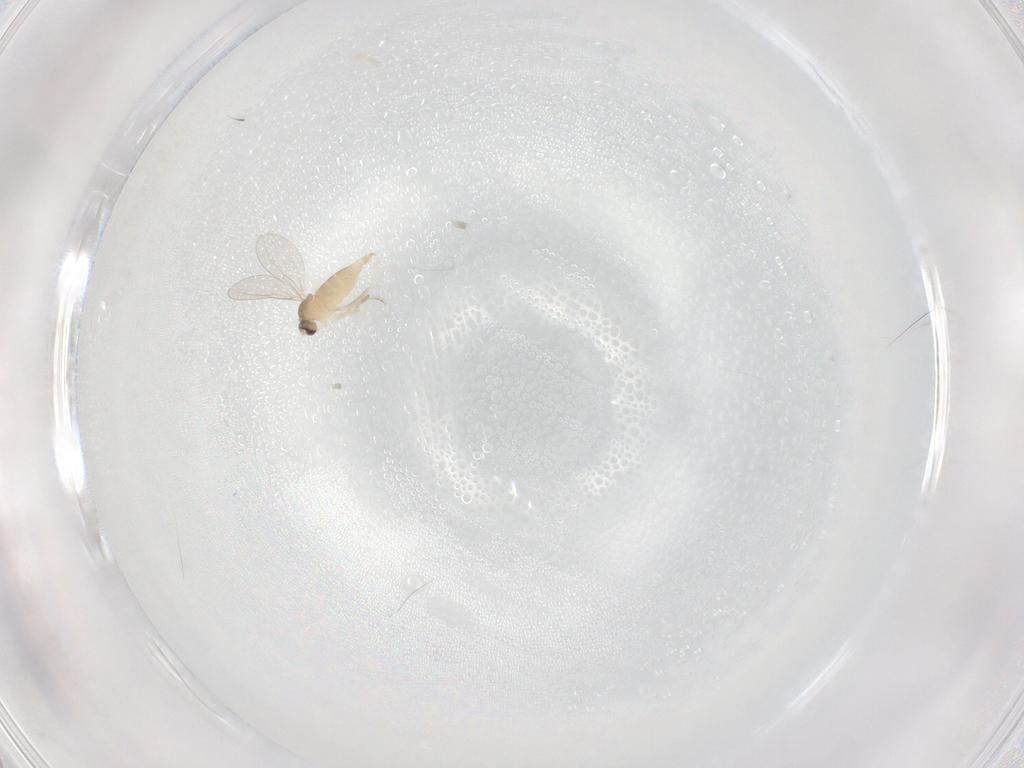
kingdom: Animalia
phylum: Arthropoda
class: Insecta
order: Diptera
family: Cecidomyiidae
